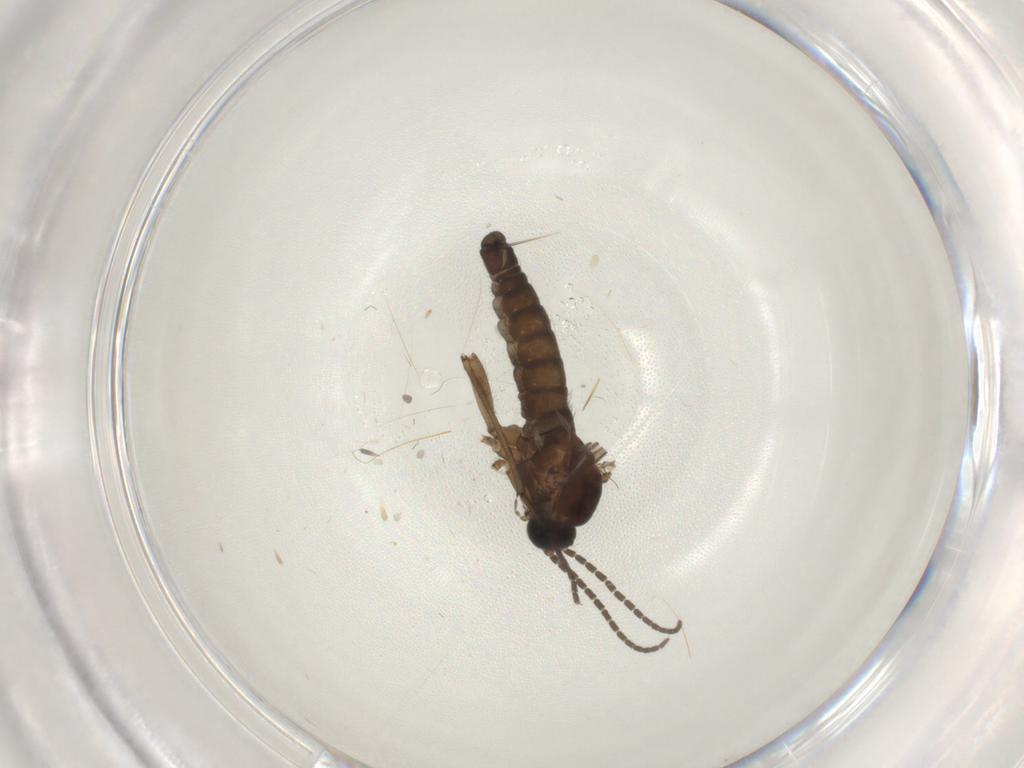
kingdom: Animalia
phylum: Arthropoda
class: Insecta
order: Diptera
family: Sciaridae
